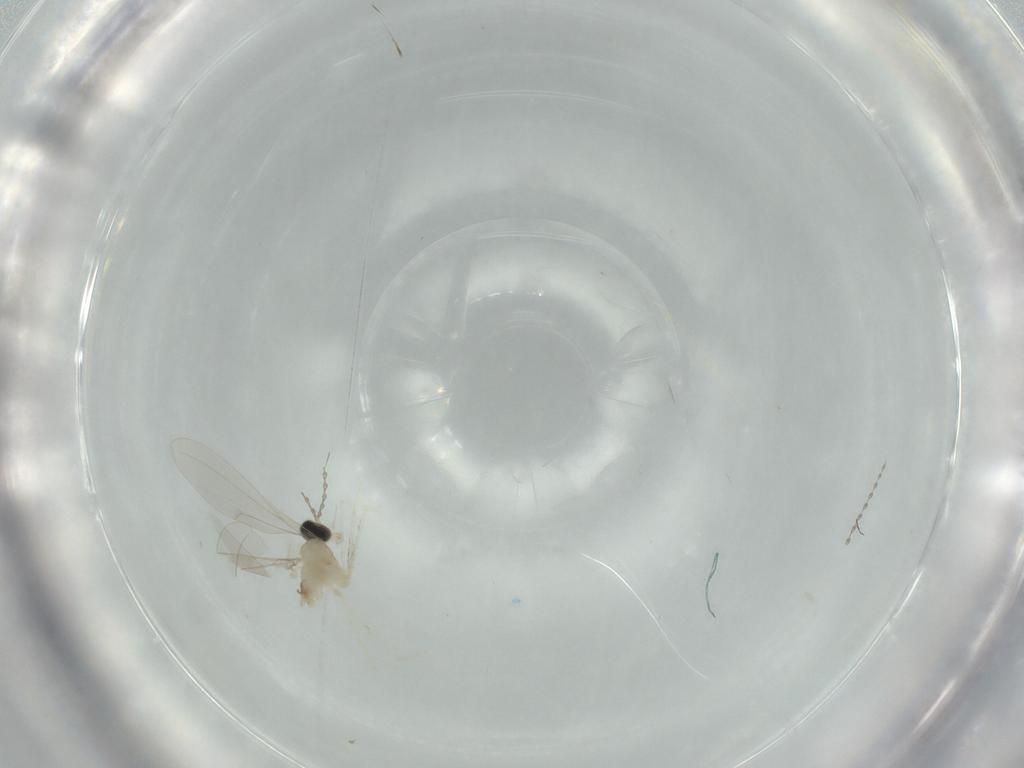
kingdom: Animalia
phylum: Arthropoda
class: Insecta
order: Diptera
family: Cecidomyiidae
